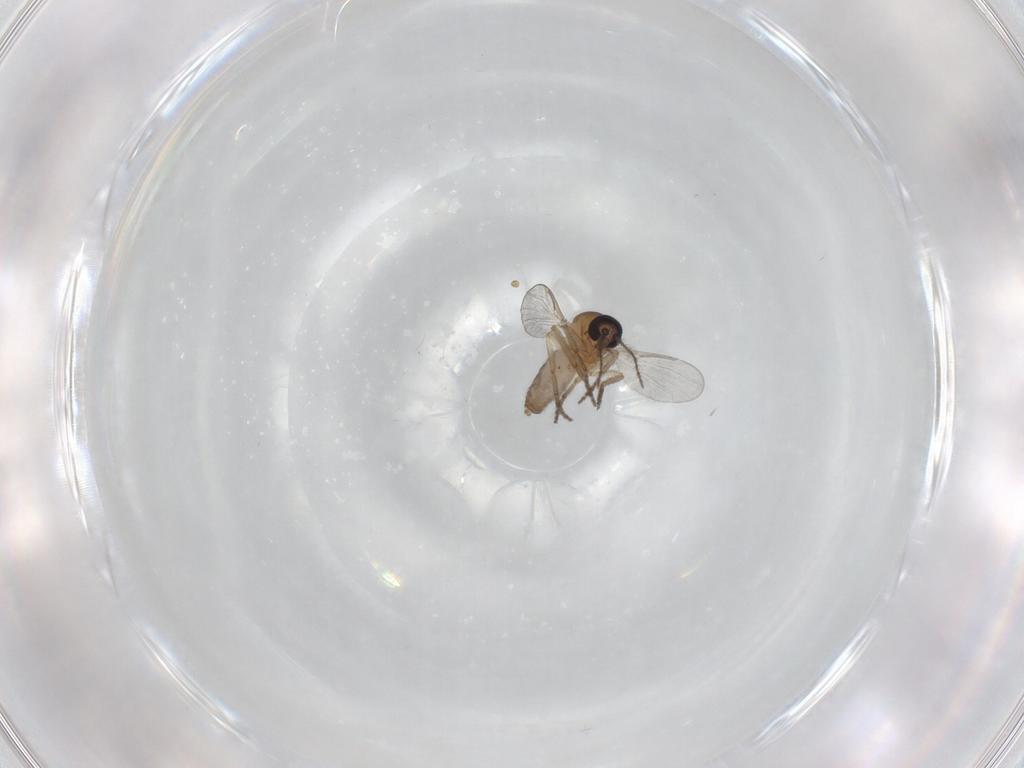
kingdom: Animalia
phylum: Arthropoda
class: Insecta
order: Diptera
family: Ceratopogonidae
